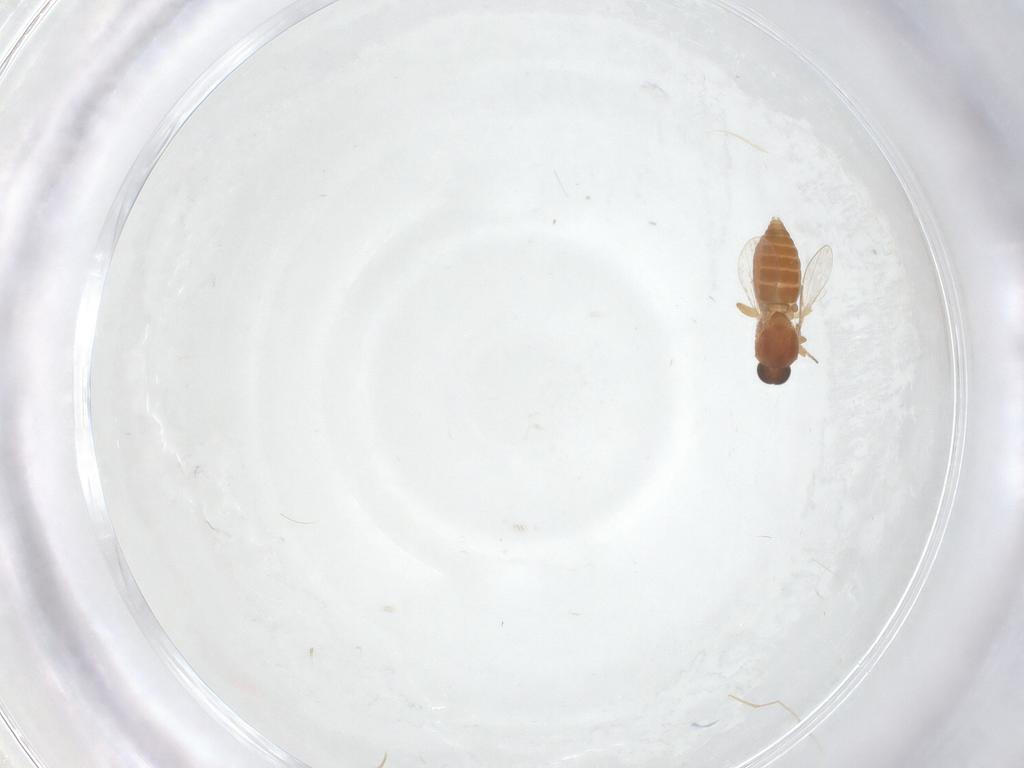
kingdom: Animalia
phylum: Arthropoda
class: Insecta
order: Diptera
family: Ceratopogonidae
